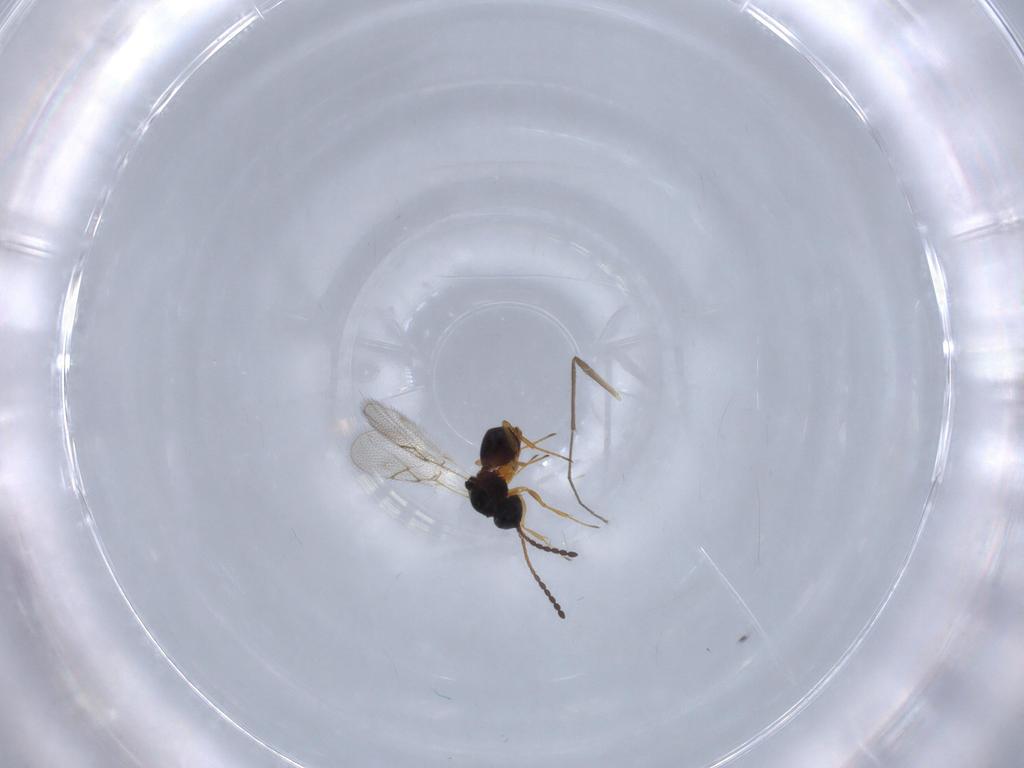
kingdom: Animalia
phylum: Arthropoda
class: Insecta
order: Hymenoptera
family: Figitidae
